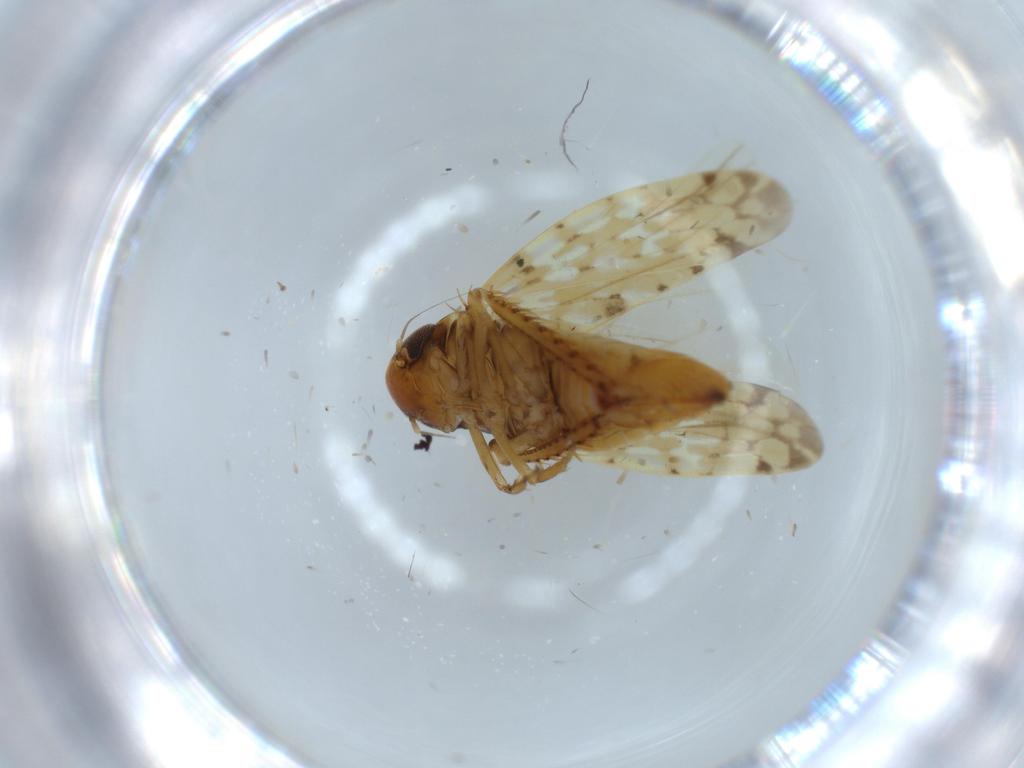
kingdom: Animalia
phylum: Arthropoda
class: Insecta
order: Hemiptera
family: Cicadellidae
